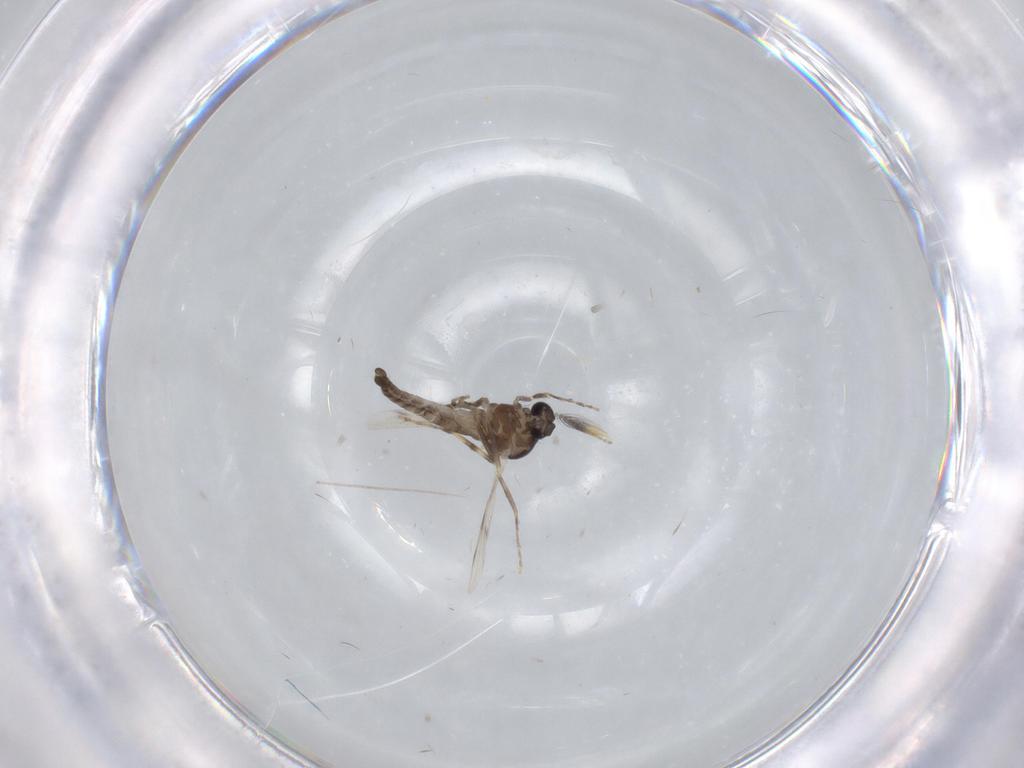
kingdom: Animalia
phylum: Arthropoda
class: Insecta
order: Diptera
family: Ceratopogonidae
